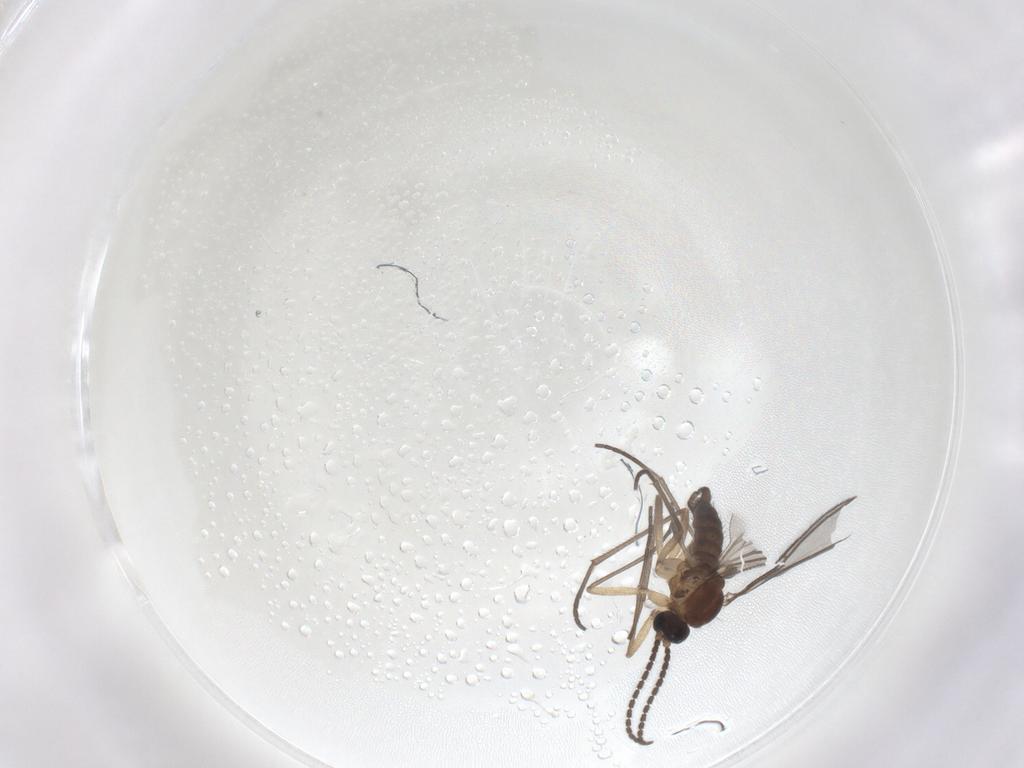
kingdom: Animalia
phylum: Arthropoda
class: Insecta
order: Diptera
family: Sciaridae
